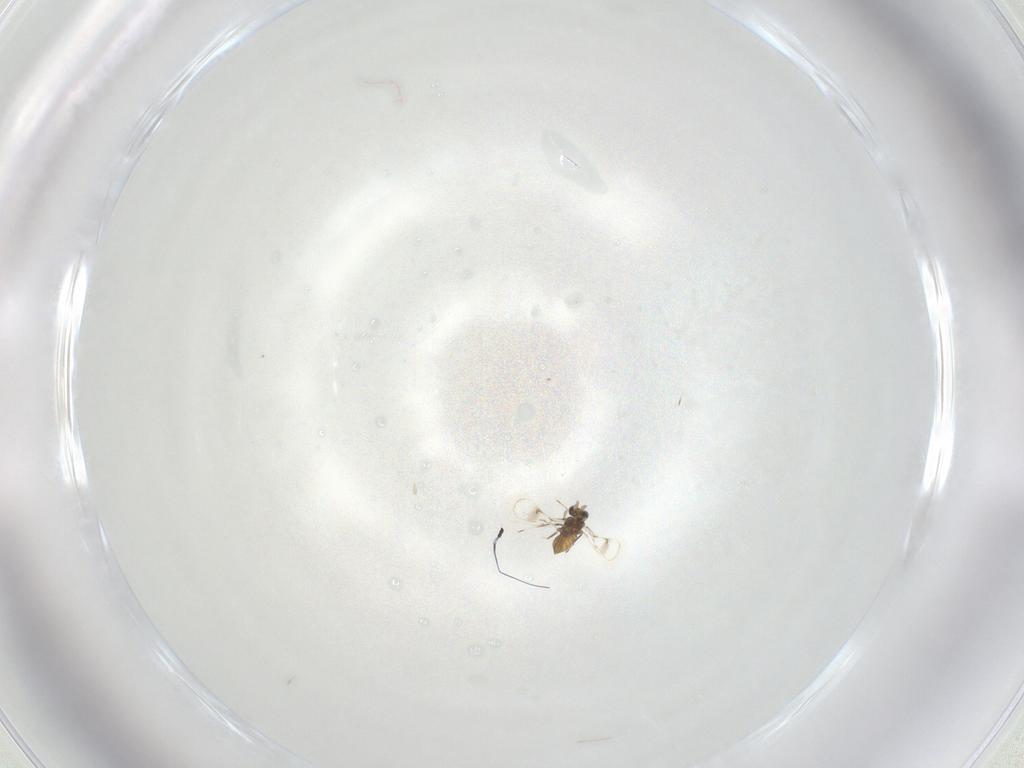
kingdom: Animalia
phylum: Arthropoda
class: Insecta
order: Hymenoptera
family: Trichogrammatidae
